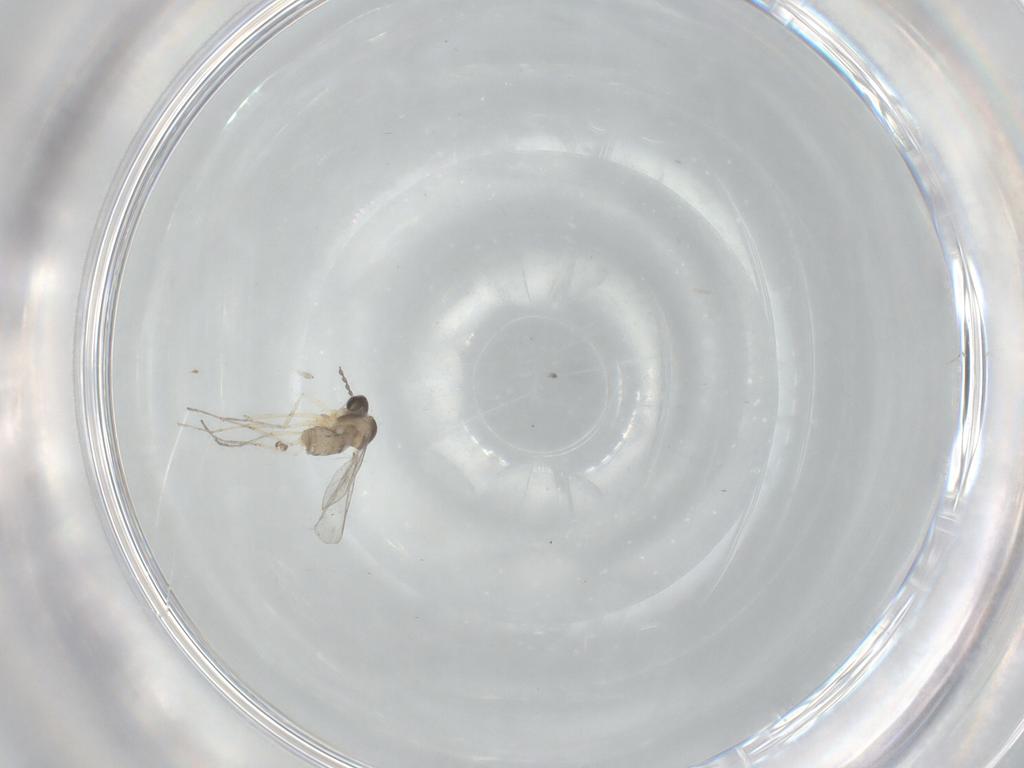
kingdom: Animalia
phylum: Arthropoda
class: Insecta
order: Diptera
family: Cecidomyiidae
